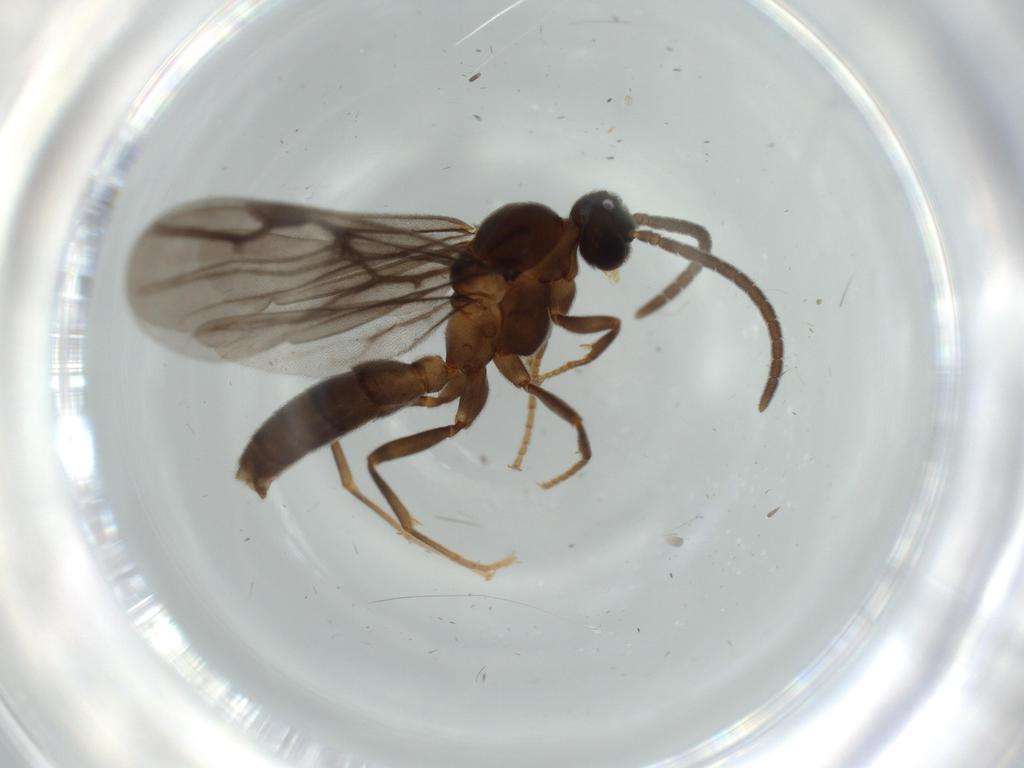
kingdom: Animalia
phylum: Arthropoda
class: Insecta
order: Hymenoptera
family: Formicidae
